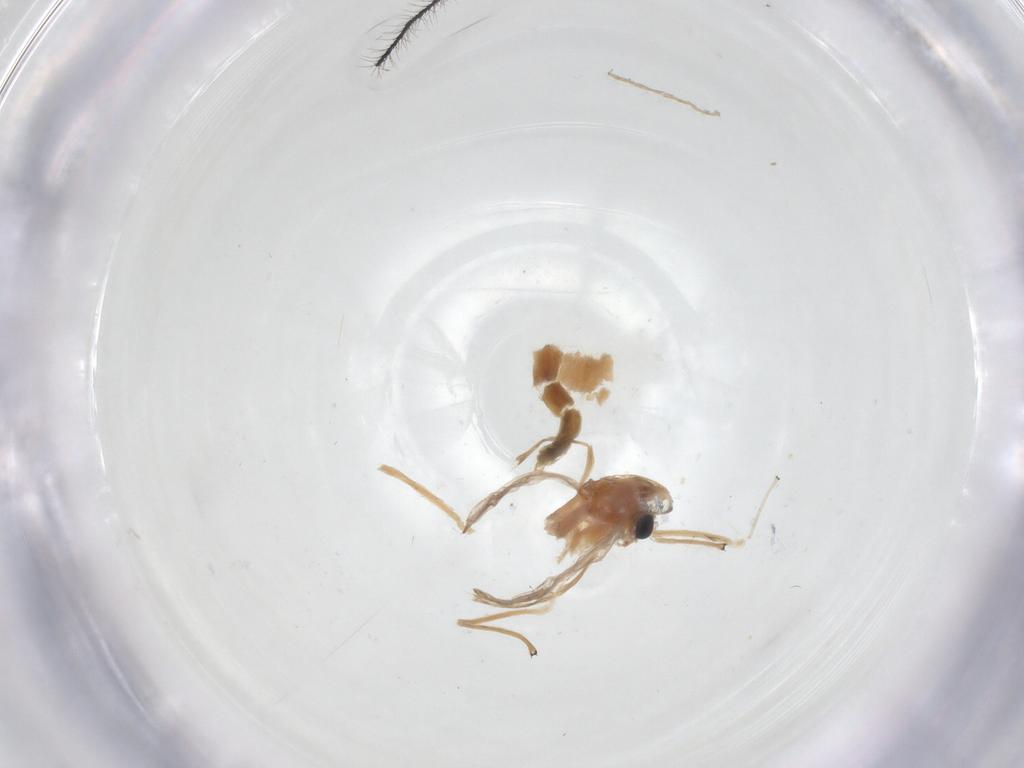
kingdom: Animalia
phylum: Arthropoda
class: Insecta
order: Diptera
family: Chironomidae
